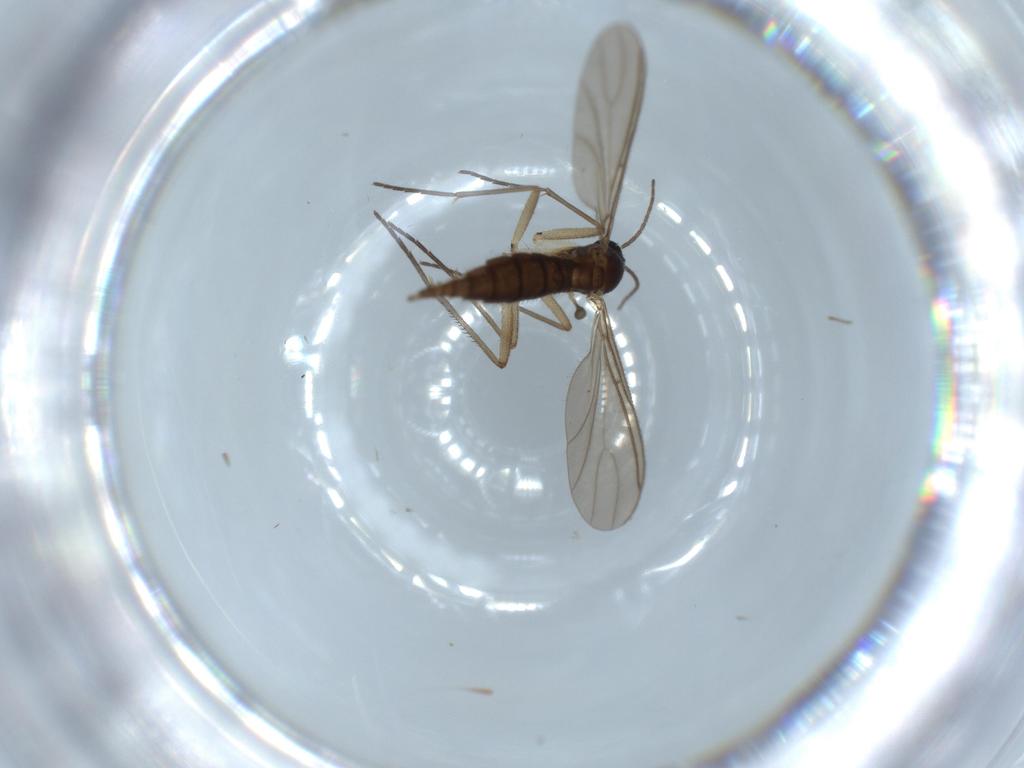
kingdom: Animalia
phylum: Arthropoda
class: Insecta
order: Diptera
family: Sciaridae
